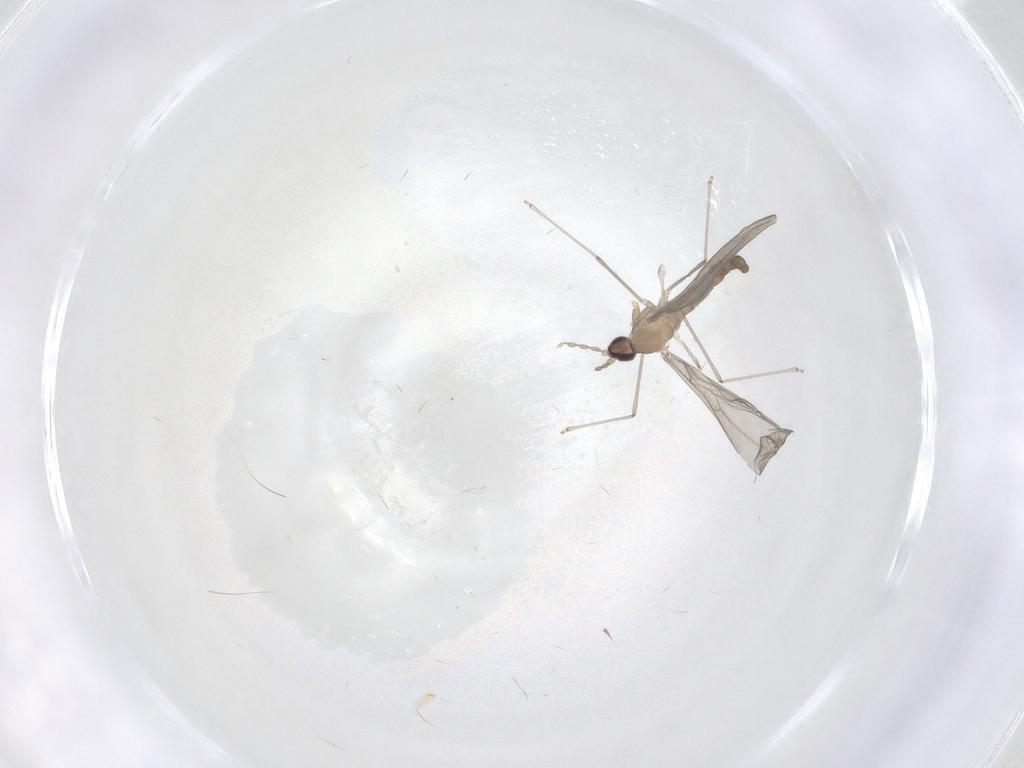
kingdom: Animalia
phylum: Arthropoda
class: Insecta
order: Diptera
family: Cecidomyiidae
